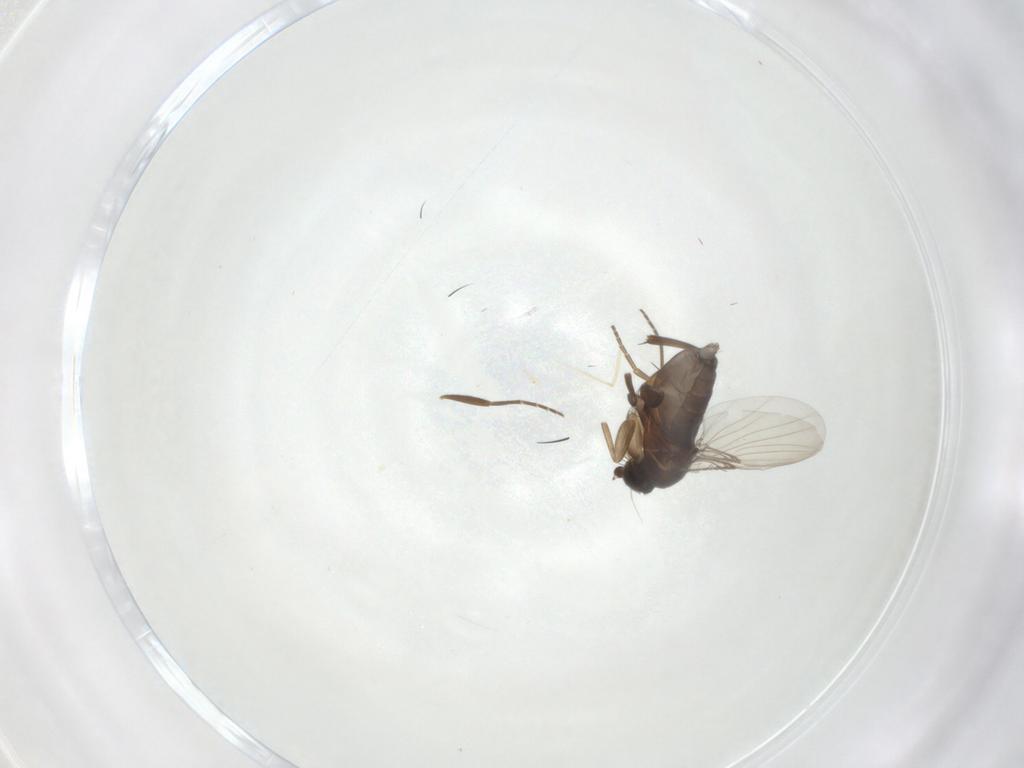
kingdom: Animalia
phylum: Arthropoda
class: Insecta
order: Diptera
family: Phoridae
